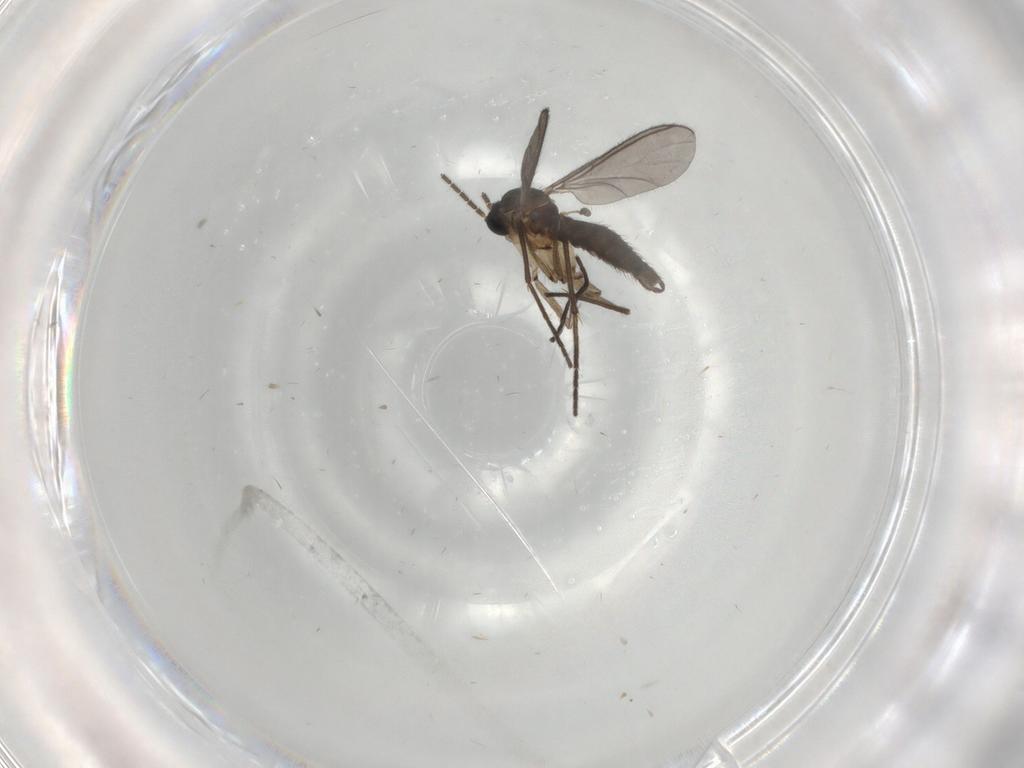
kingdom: Animalia
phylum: Arthropoda
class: Insecta
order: Diptera
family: Sciaridae
